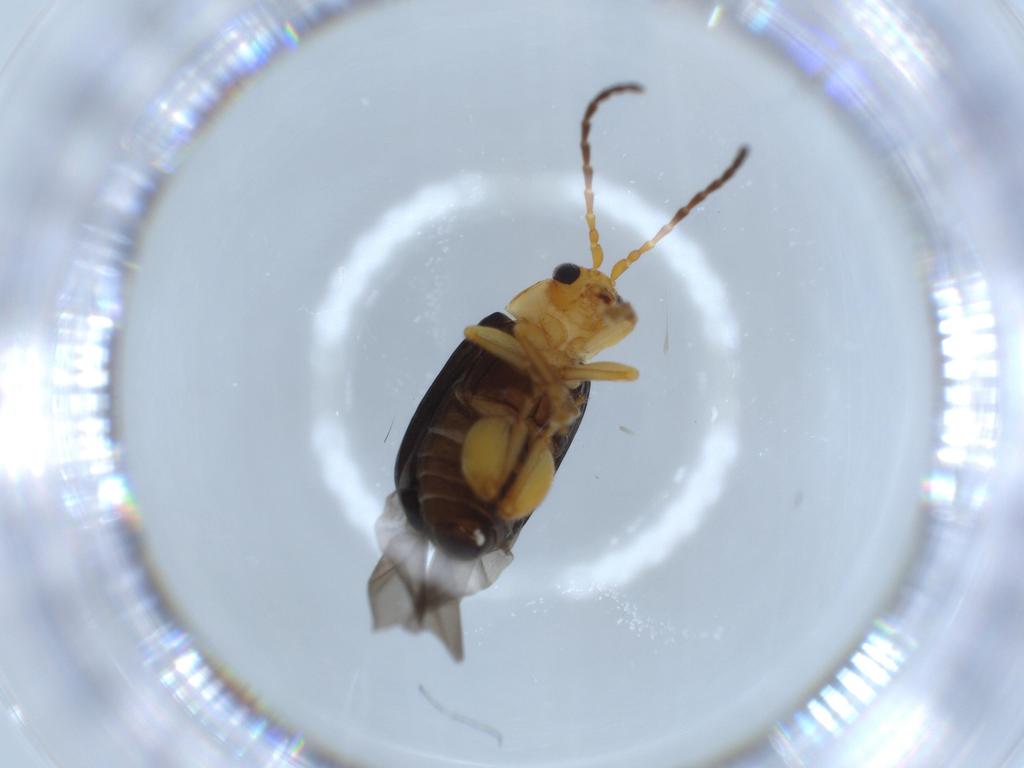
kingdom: Animalia
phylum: Arthropoda
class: Insecta
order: Coleoptera
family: Chrysomelidae
